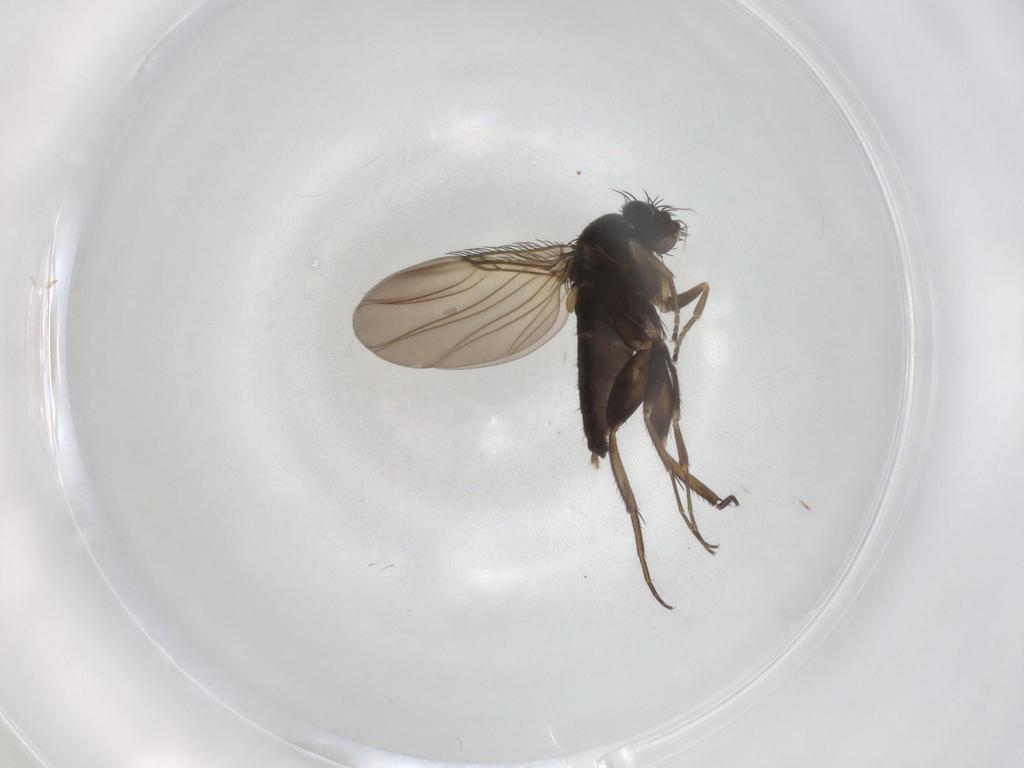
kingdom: Animalia
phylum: Arthropoda
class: Insecta
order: Diptera
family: Phoridae
